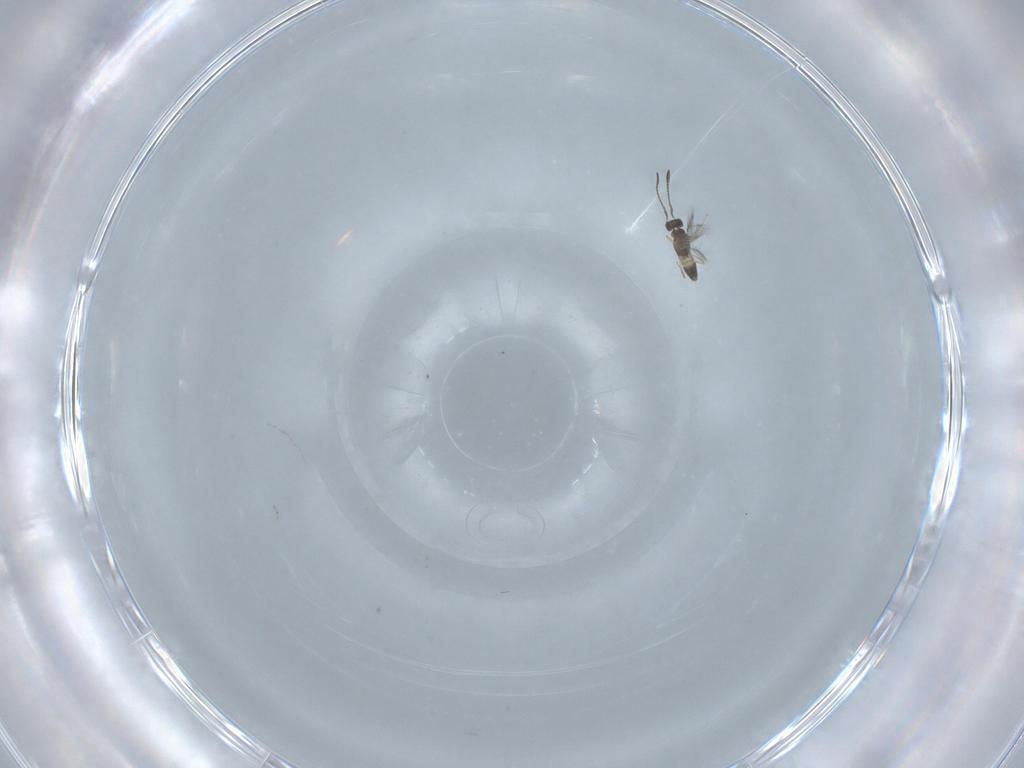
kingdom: Animalia
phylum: Arthropoda
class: Insecta
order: Hymenoptera
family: Mymaridae
